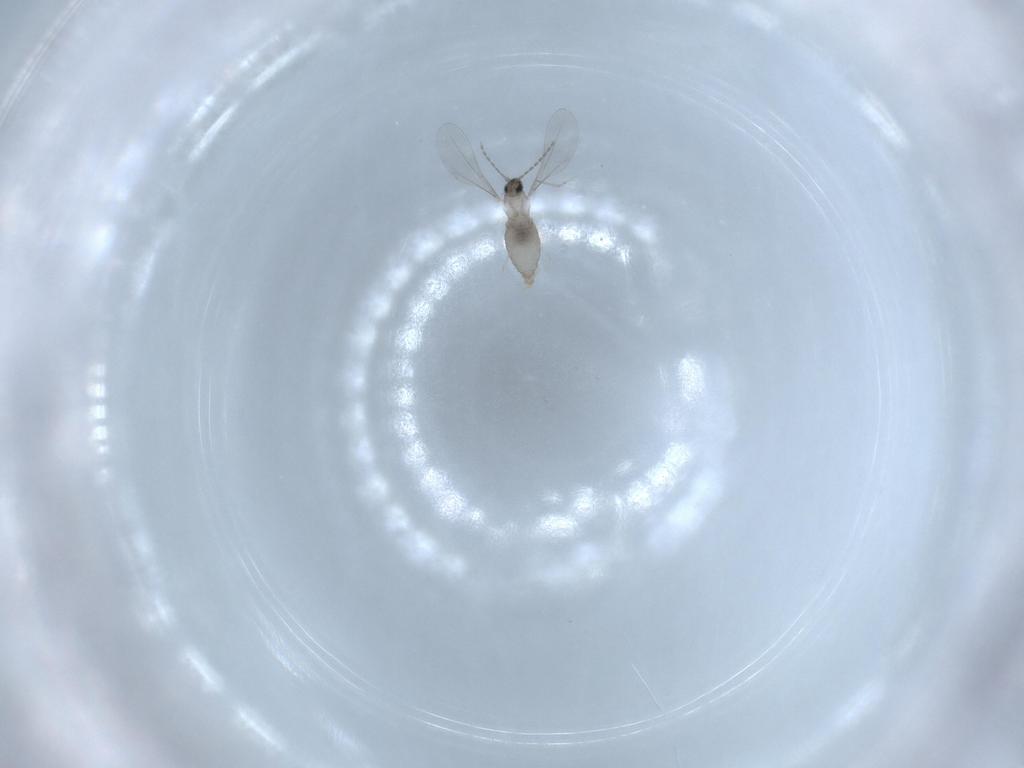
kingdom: Animalia
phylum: Arthropoda
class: Insecta
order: Diptera
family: Cecidomyiidae
